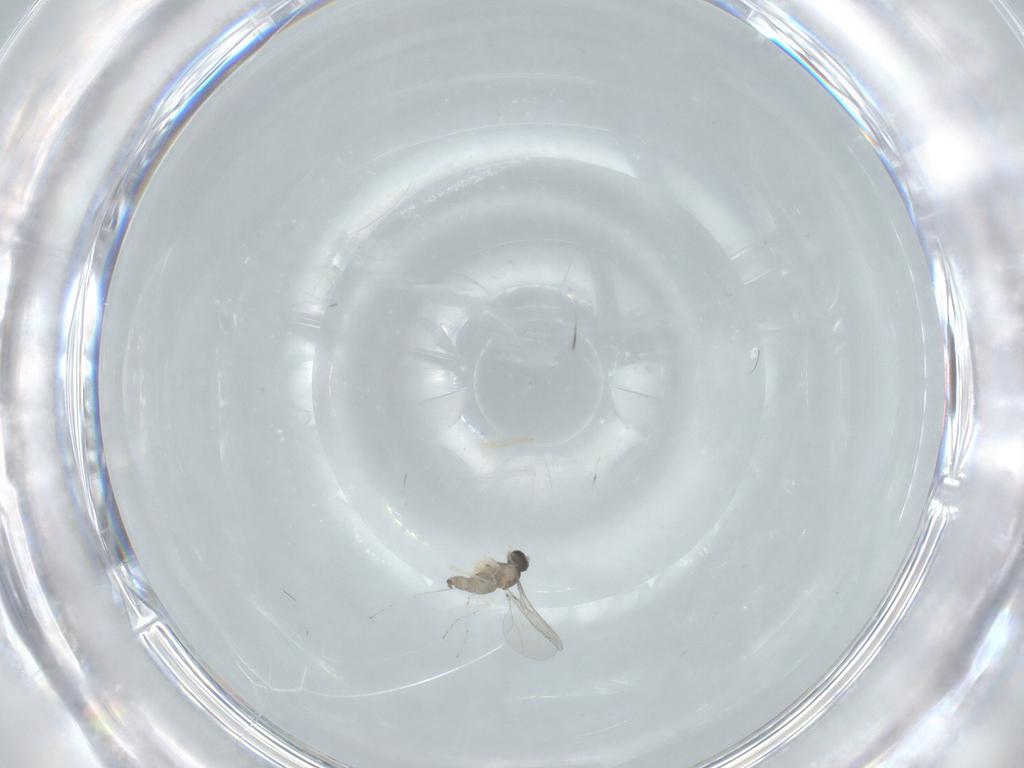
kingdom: Animalia
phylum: Arthropoda
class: Insecta
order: Diptera
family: Cecidomyiidae
